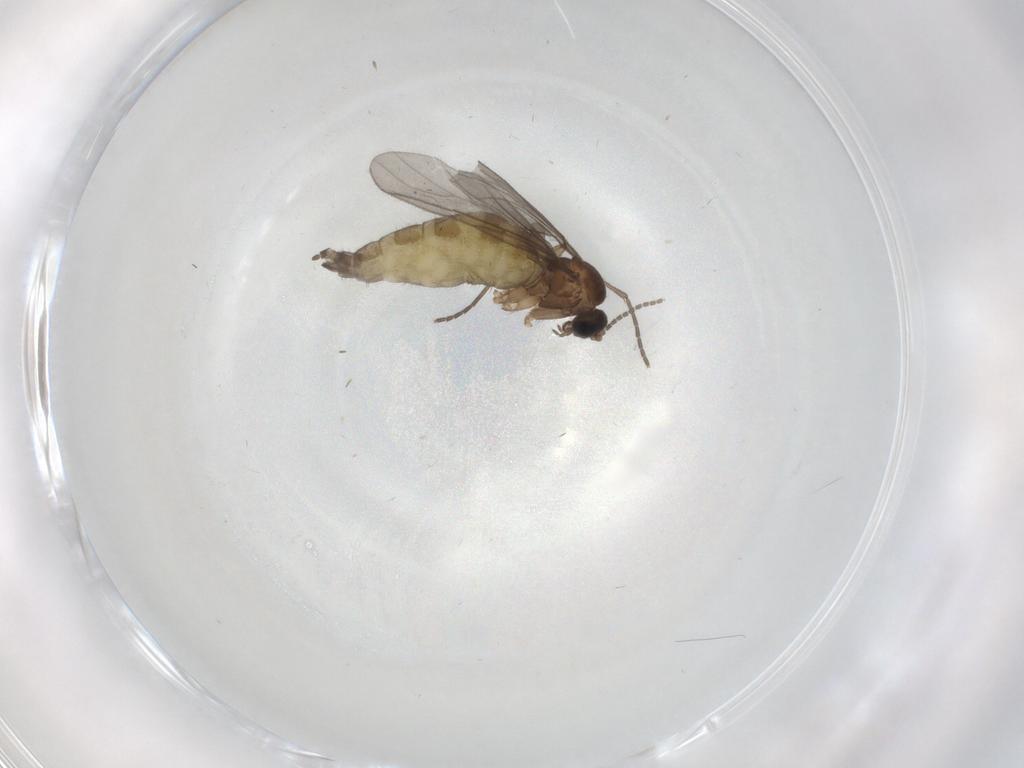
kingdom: Animalia
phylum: Arthropoda
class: Insecta
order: Diptera
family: Sciaridae
